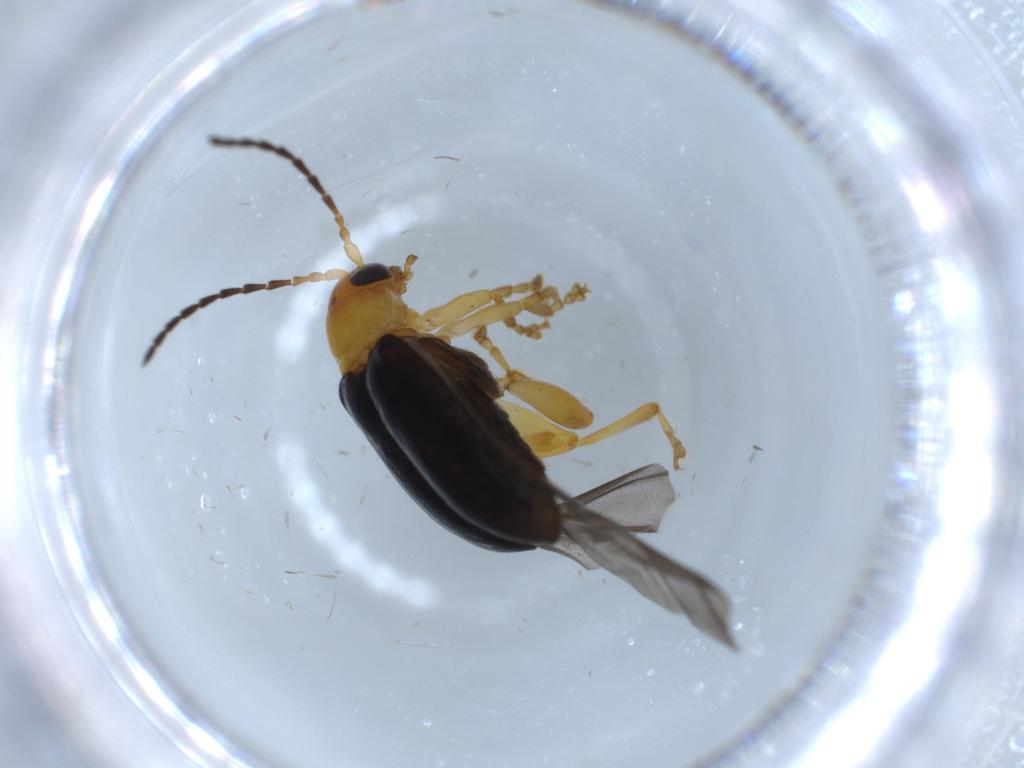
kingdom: Animalia
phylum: Arthropoda
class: Insecta
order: Coleoptera
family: Chrysomelidae
